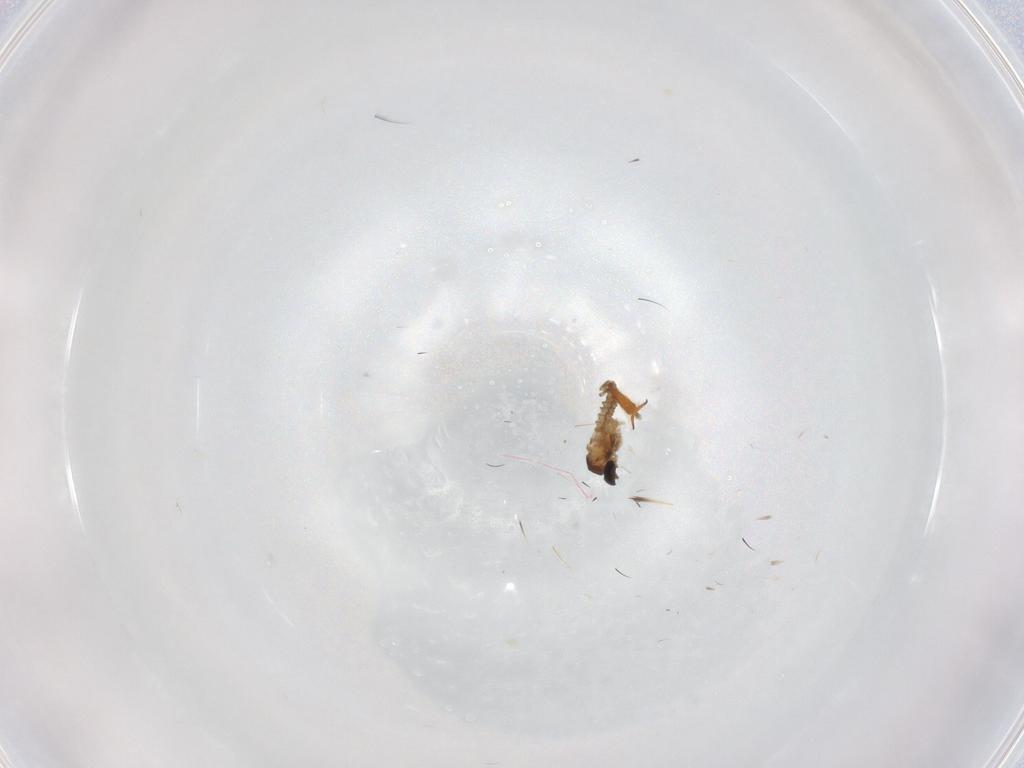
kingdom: Animalia
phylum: Arthropoda
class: Insecta
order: Diptera
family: Cecidomyiidae
